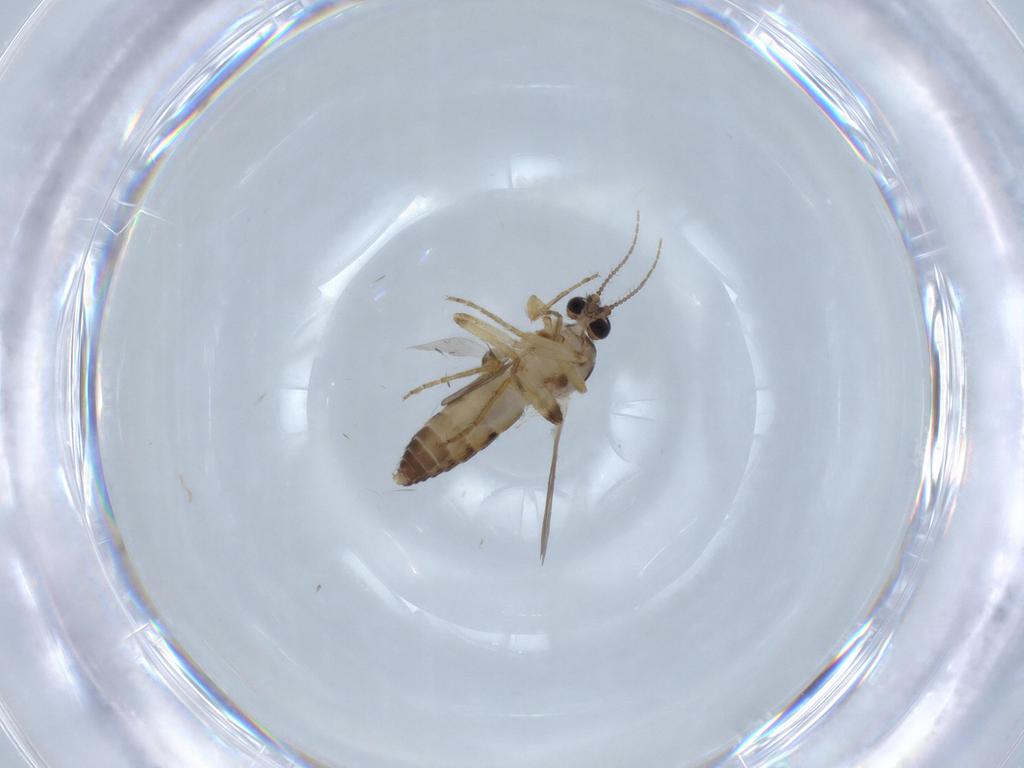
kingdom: Animalia
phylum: Arthropoda
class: Insecta
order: Diptera
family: Ceratopogonidae
